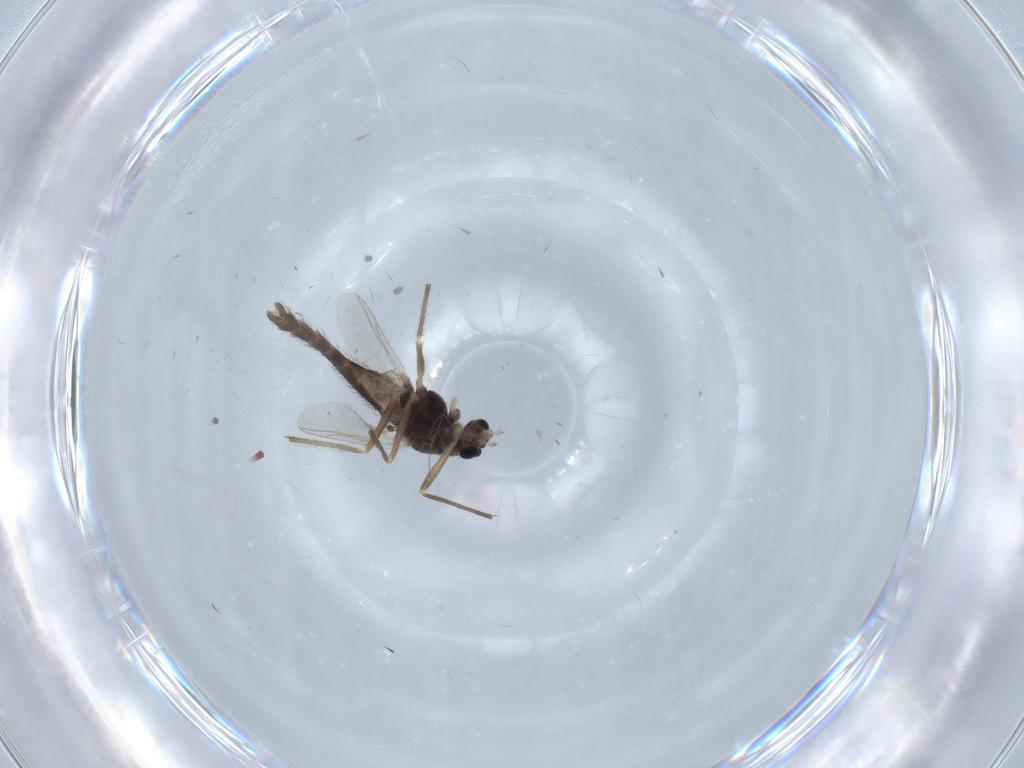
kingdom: Animalia
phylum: Arthropoda
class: Insecta
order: Diptera
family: Chironomidae
